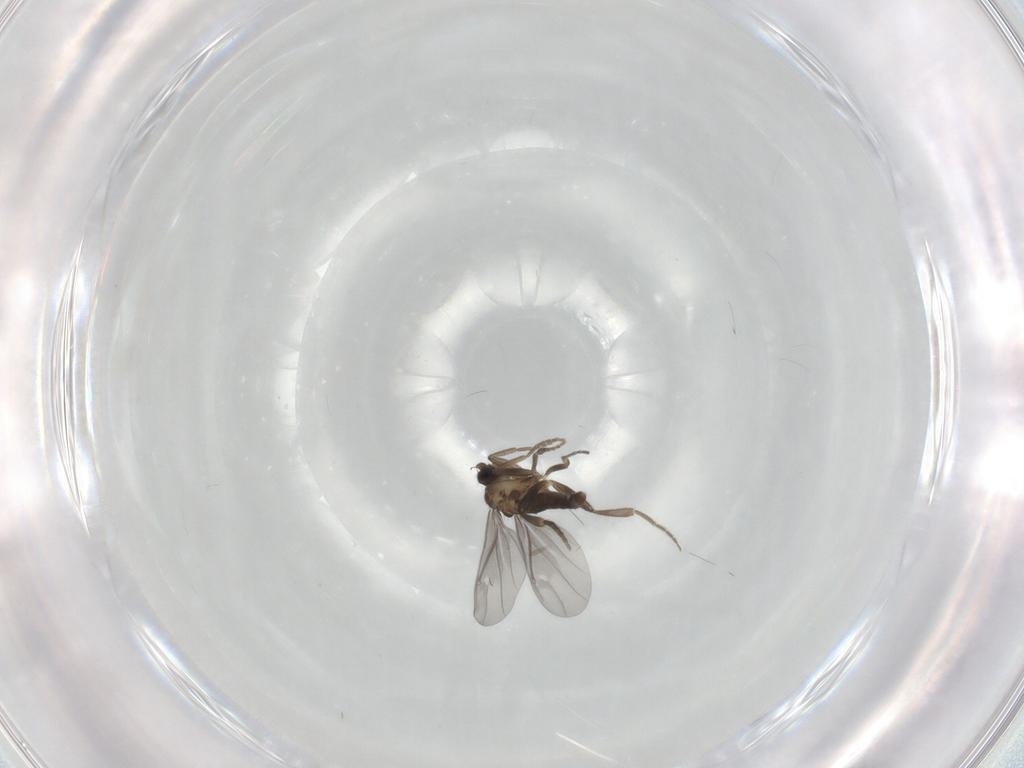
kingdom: Animalia
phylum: Arthropoda
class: Insecta
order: Diptera
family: Phoridae
